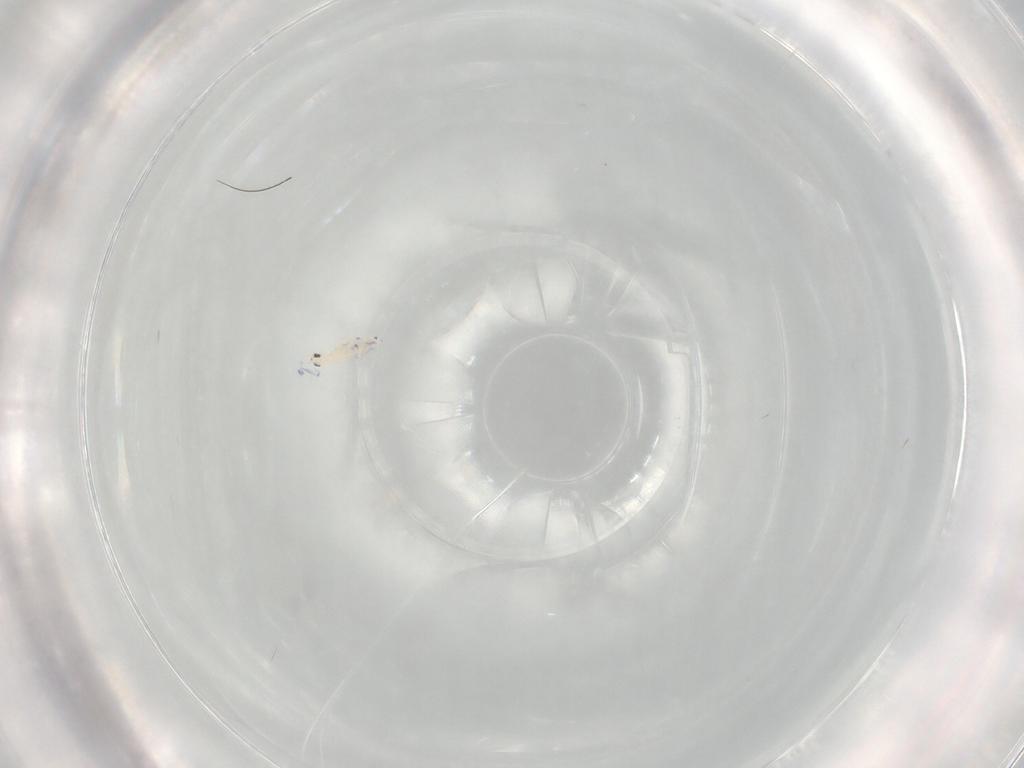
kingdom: Animalia
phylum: Arthropoda
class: Collembola
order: Entomobryomorpha
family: Entomobryidae
